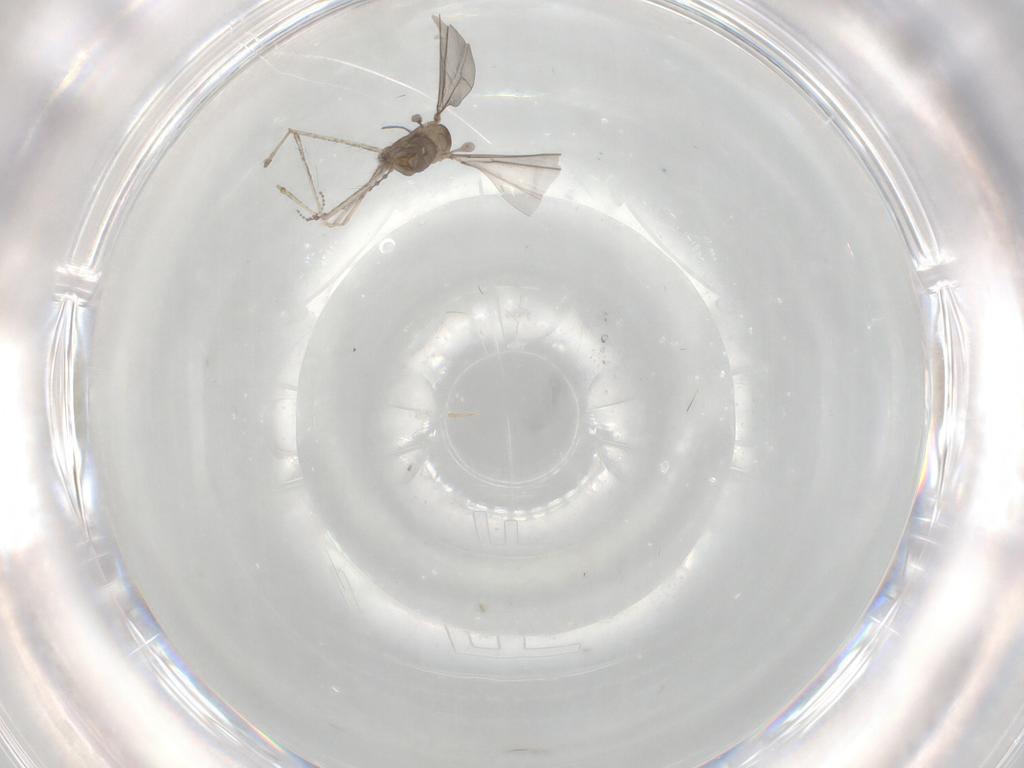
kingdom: Animalia
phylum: Arthropoda
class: Insecta
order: Diptera
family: Cecidomyiidae
